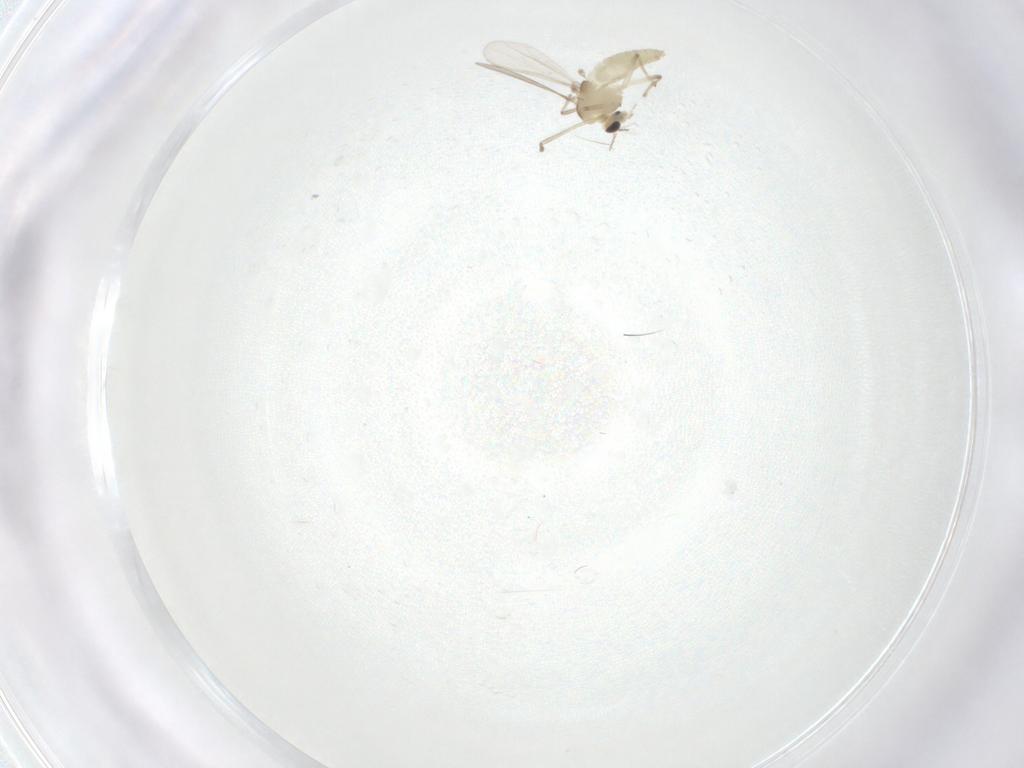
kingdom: Animalia
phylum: Arthropoda
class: Insecta
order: Diptera
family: Chironomidae
